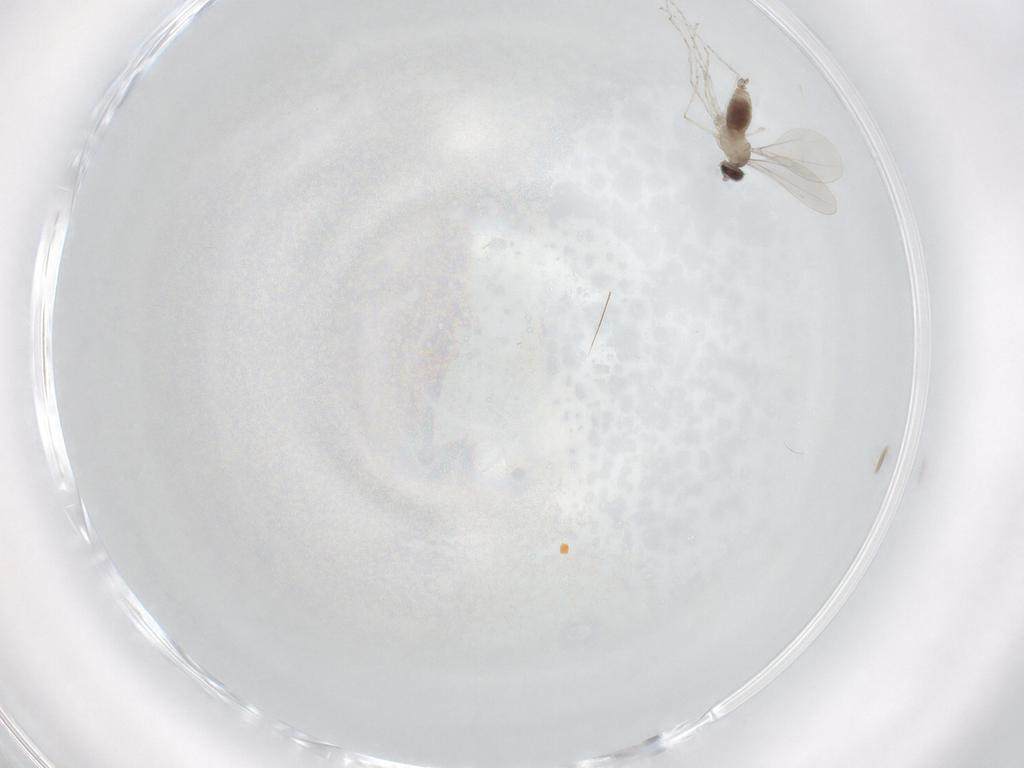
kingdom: Animalia
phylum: Arthropoda
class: Insecta
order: Diptera
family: Cecidomyiidae
